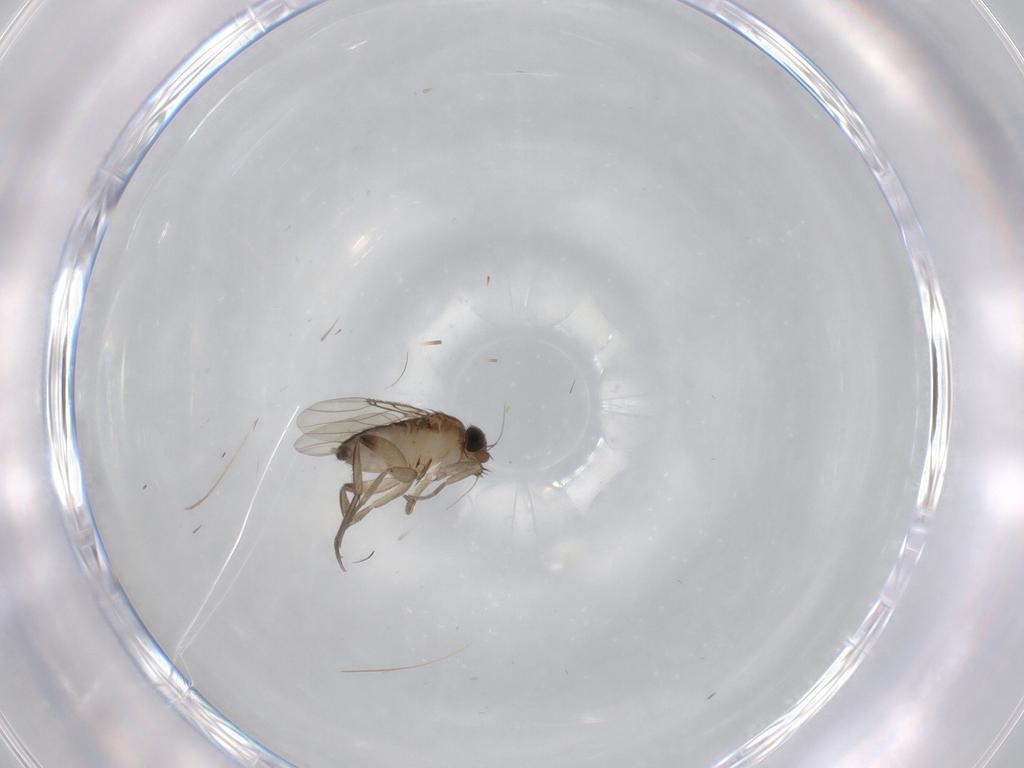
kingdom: Animalia
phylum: Arthropoda
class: Insecta
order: Diptera
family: Phoridae
